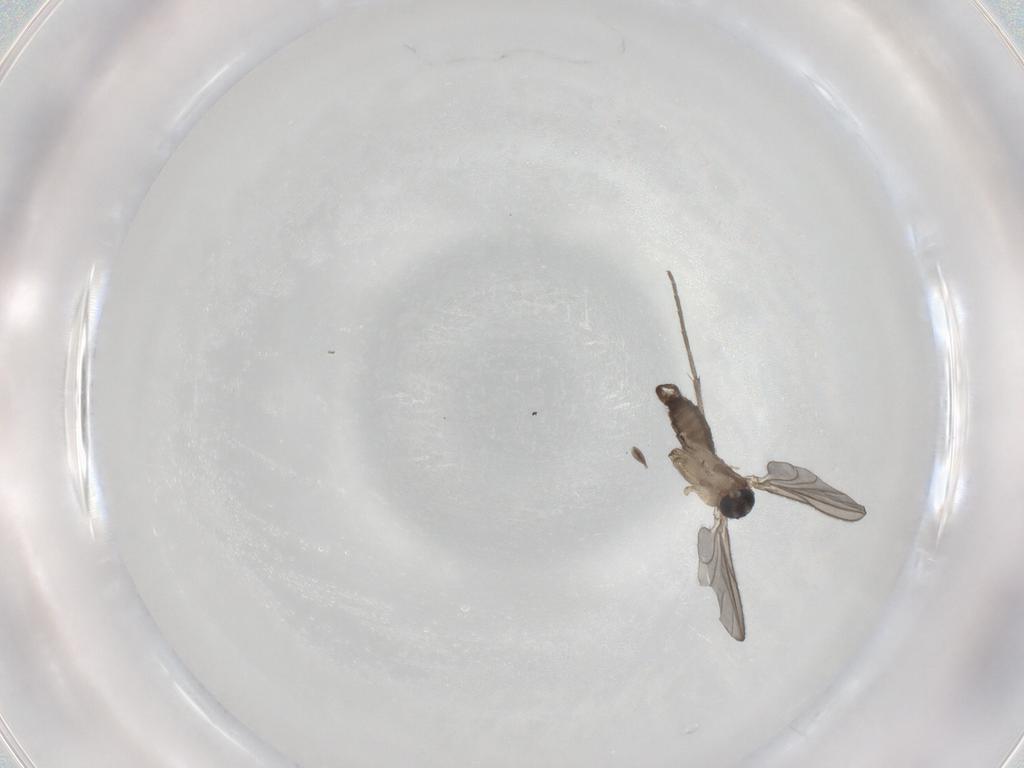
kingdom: Animalia
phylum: Arthropoda
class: Insecta
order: Diptera
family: Sciaridae
